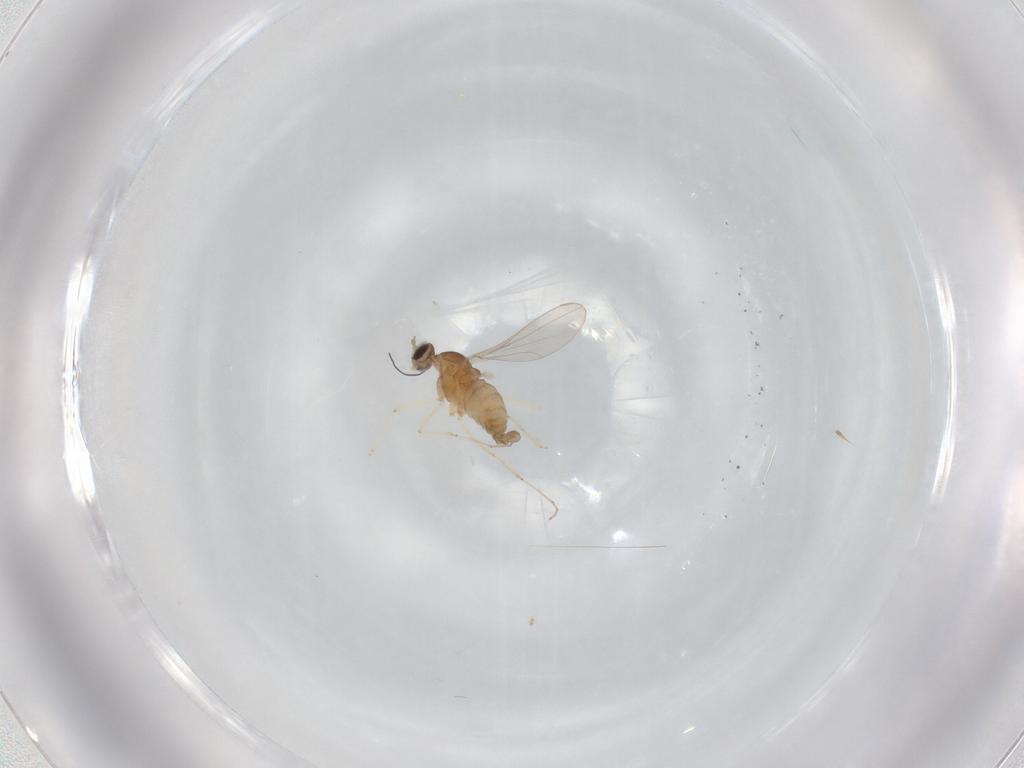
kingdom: Animalia
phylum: Arthropoda
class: Insecta
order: Diptera
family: Cecidomyiidae
